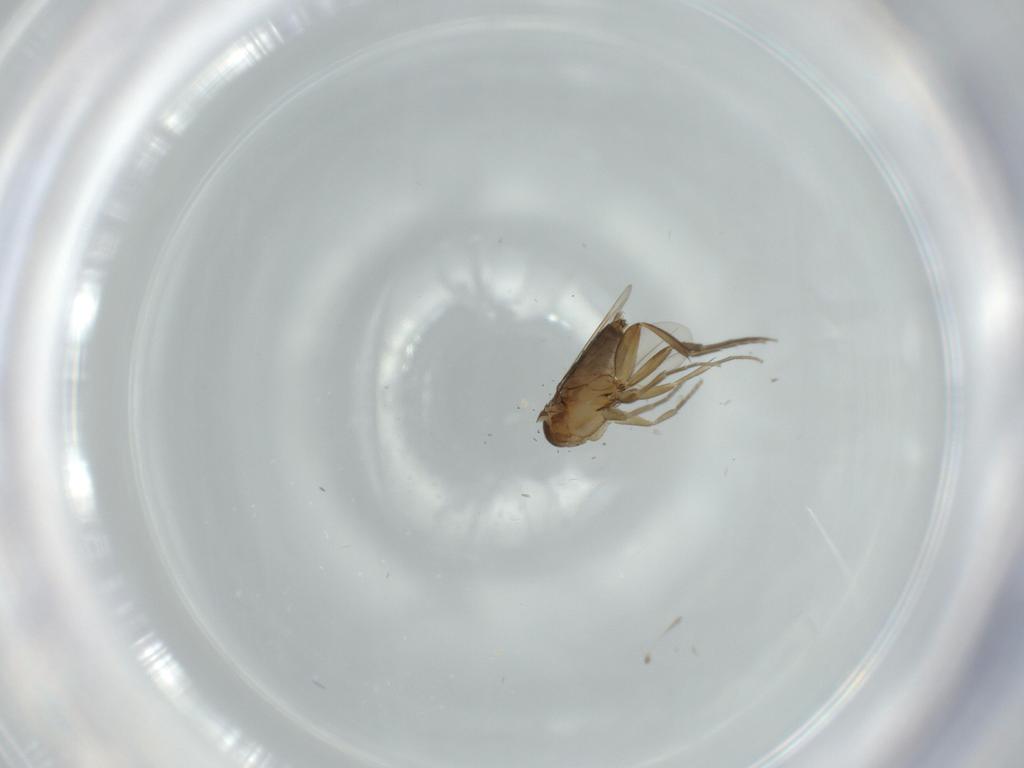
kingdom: Animalia
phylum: Arthropoda
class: Insecta
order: Diptera
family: Phoridae
